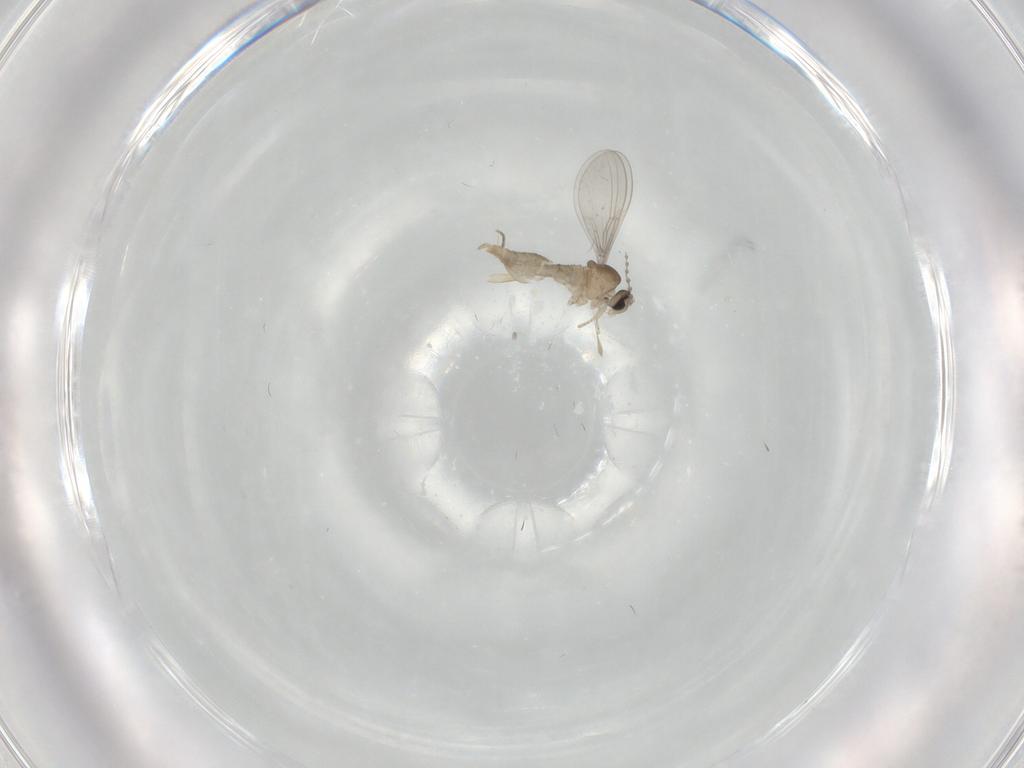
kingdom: Animalia
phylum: Arthropoda
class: Insecta
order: Diptera
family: Cecidomyiidae
